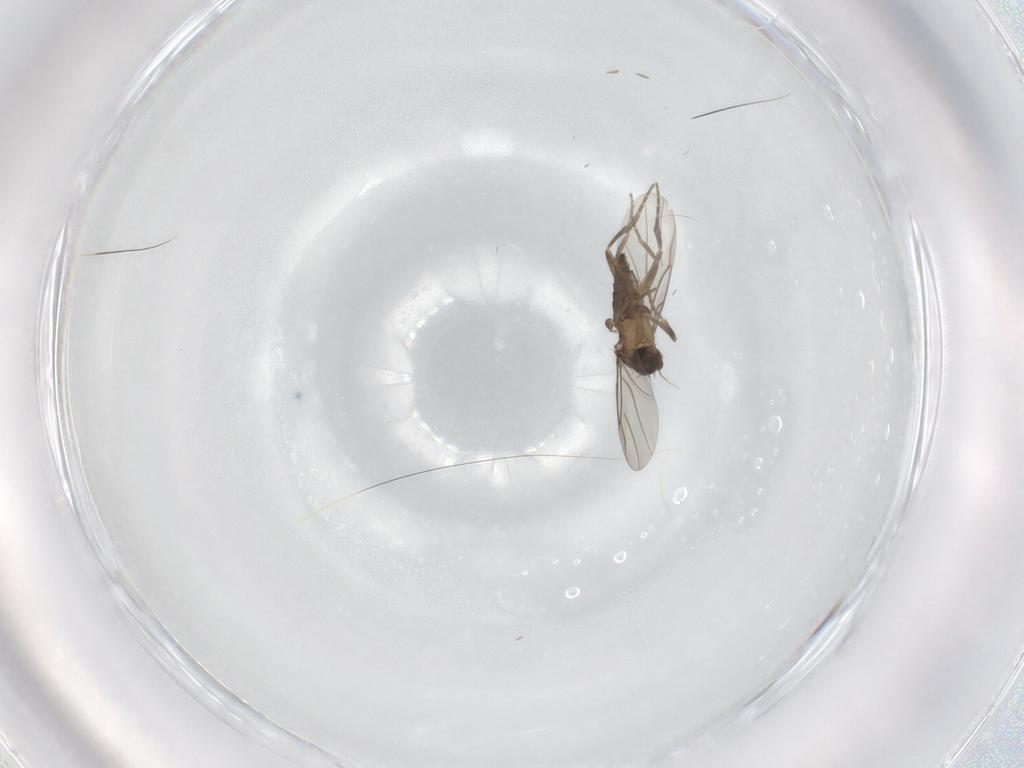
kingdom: Animalia
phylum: Arthropoda
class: Insecta
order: Diptera
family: Phoridae
